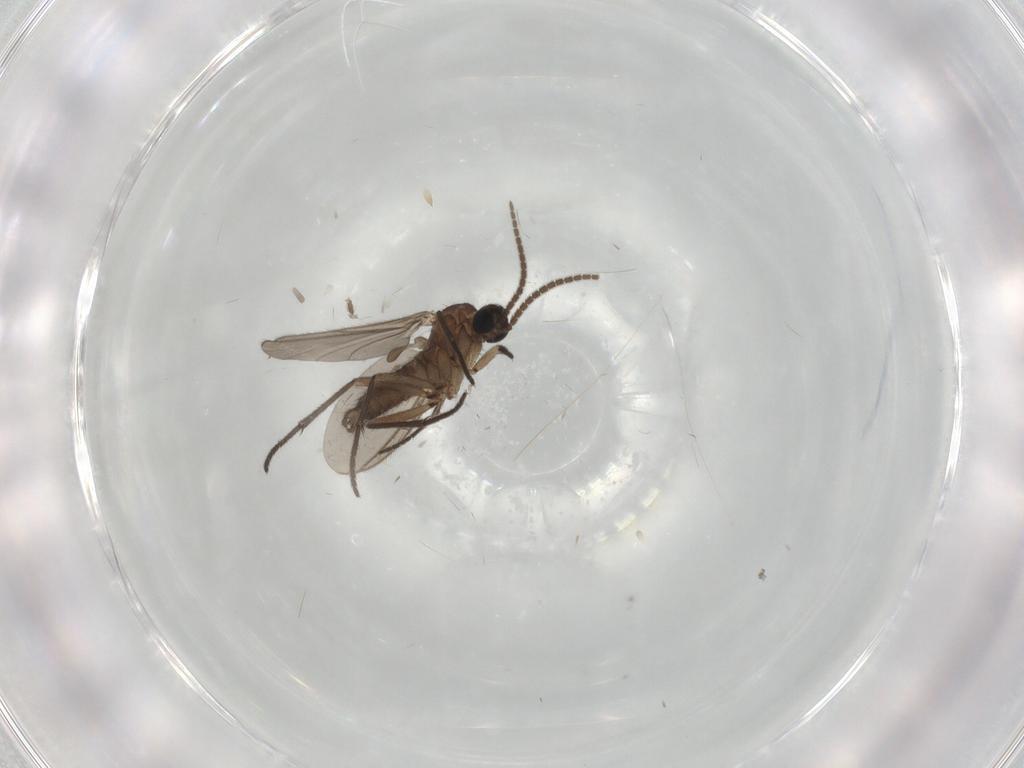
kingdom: Animalia
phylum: Arthropoda
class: Insecta
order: Diptera
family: Sciaridae
